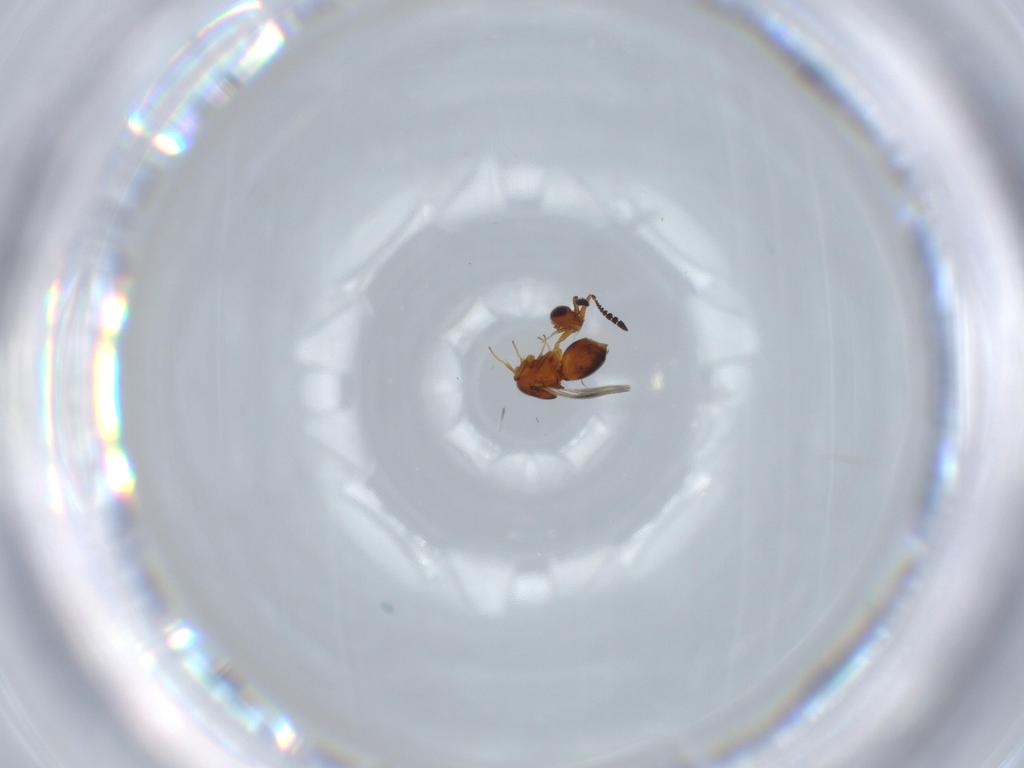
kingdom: Animalia
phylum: Arthropoda
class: Insecta
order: Hymenoptera
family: Ceraphronidae
